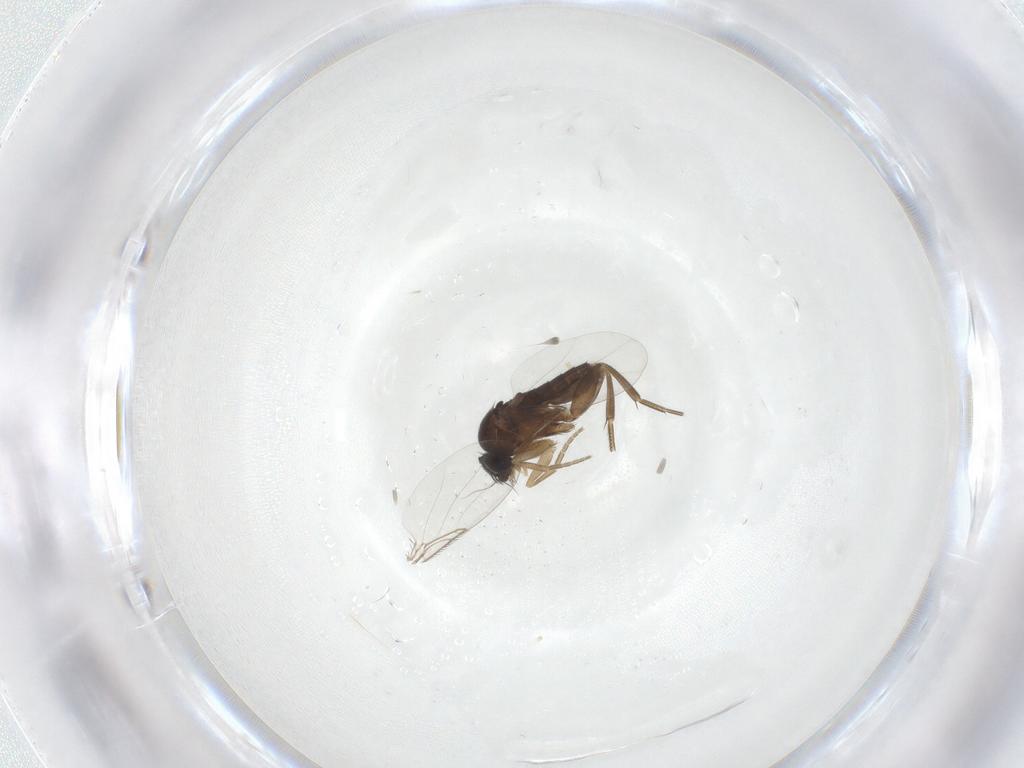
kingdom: Animalia
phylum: Arthropoda
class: Insecta
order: Diptera
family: Phoridae
